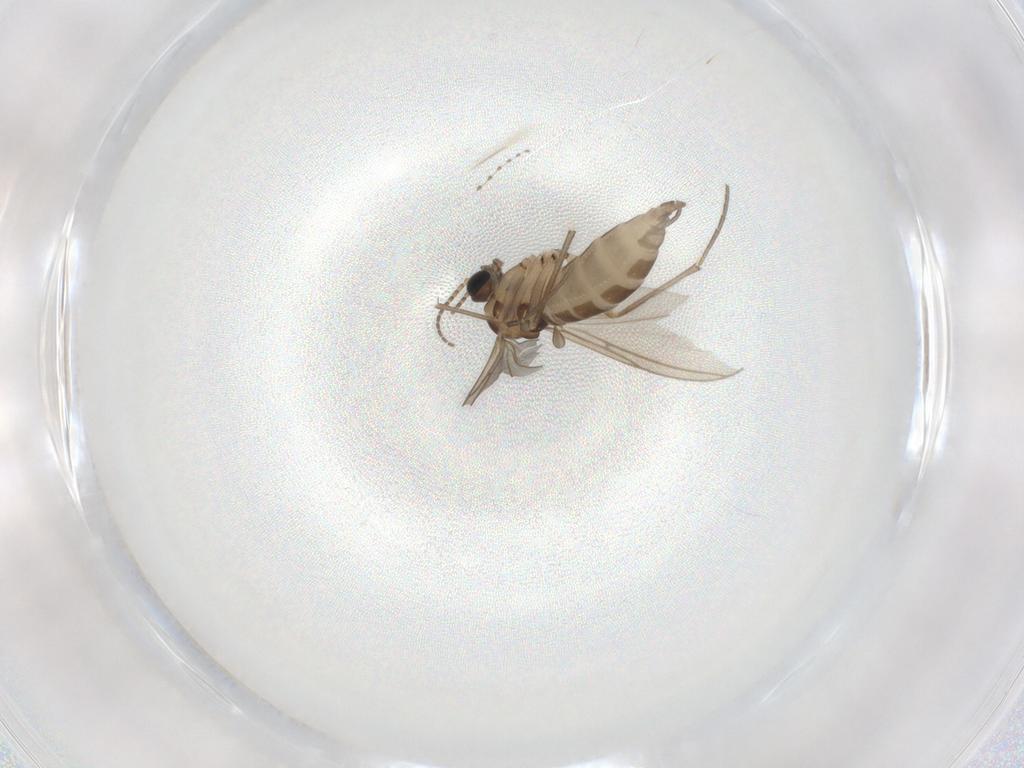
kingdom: Animalia
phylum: Arthropoda
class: Insecta
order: Diptera
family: Sciaridae
